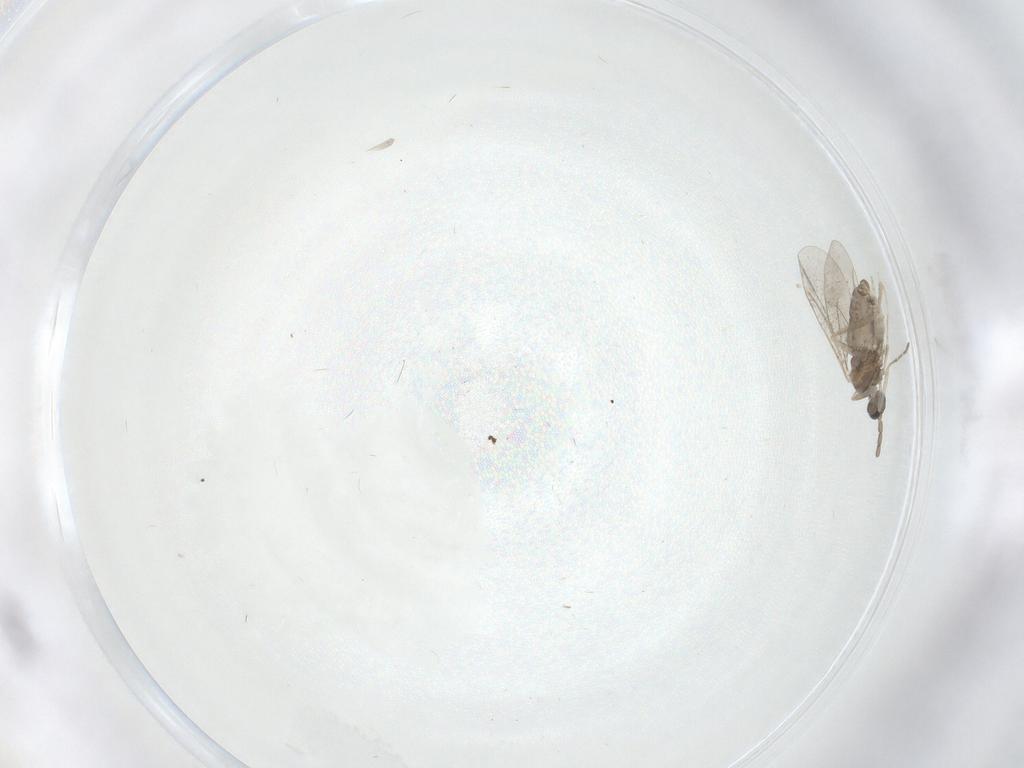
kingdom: Animalia
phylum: Arthropoda
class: Insecta
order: Diptera
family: Cecidomyiidae
